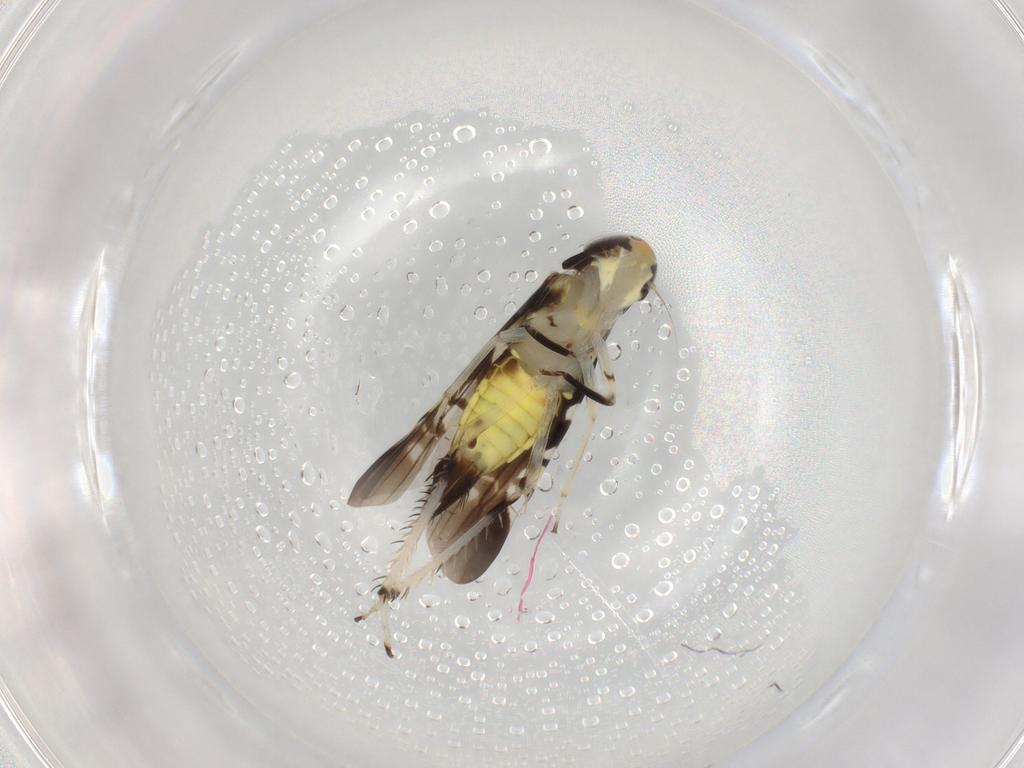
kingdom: Animalia
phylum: Arthropoda
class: Insecta
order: Hemiptera
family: Cicadellidae
